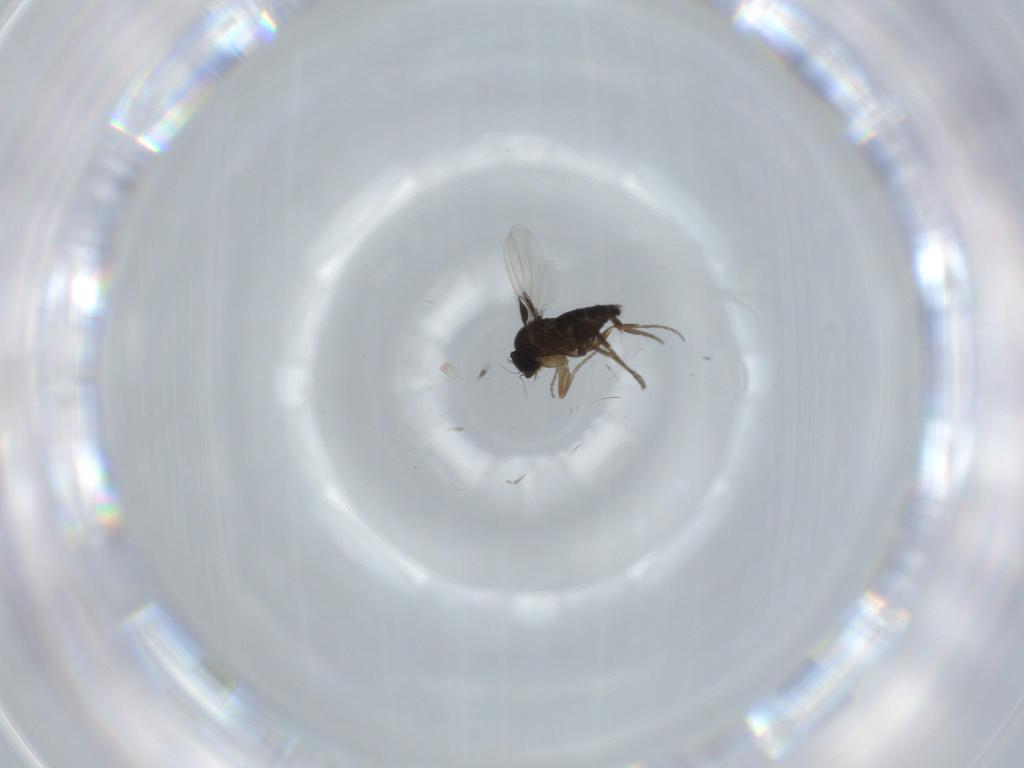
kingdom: Animalia
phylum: Arthropoda
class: Insecta
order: Diptera
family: Phoridae
